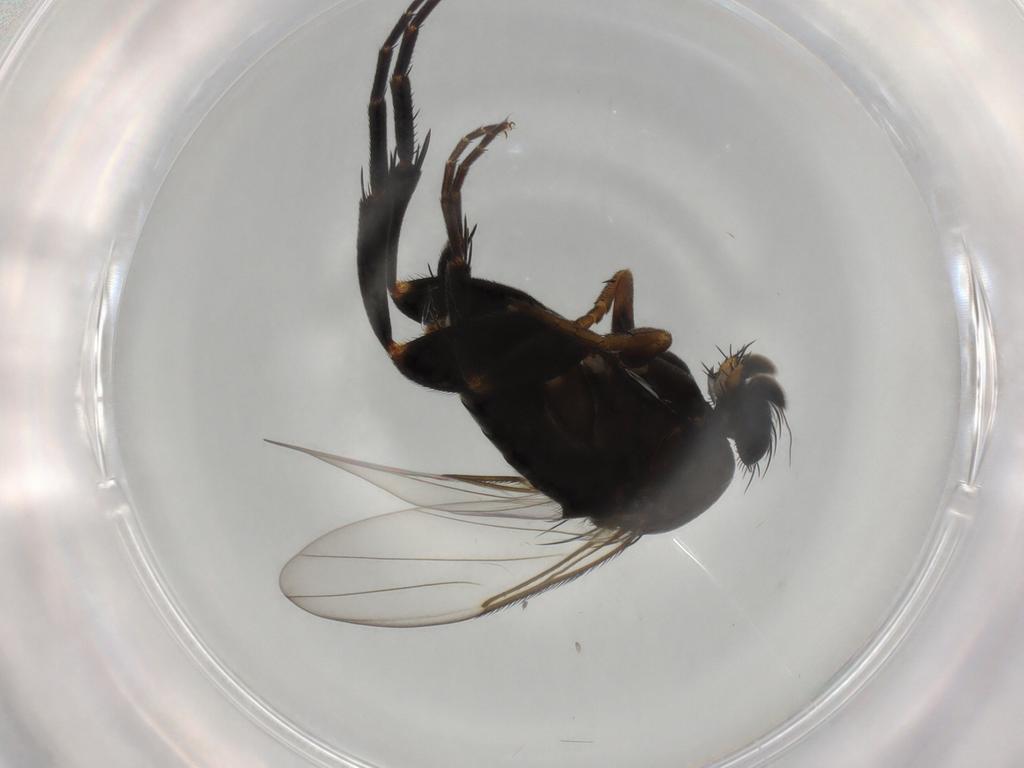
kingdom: Animalia
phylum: Arthropoda
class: Insecta
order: Diptera
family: Phoridae
